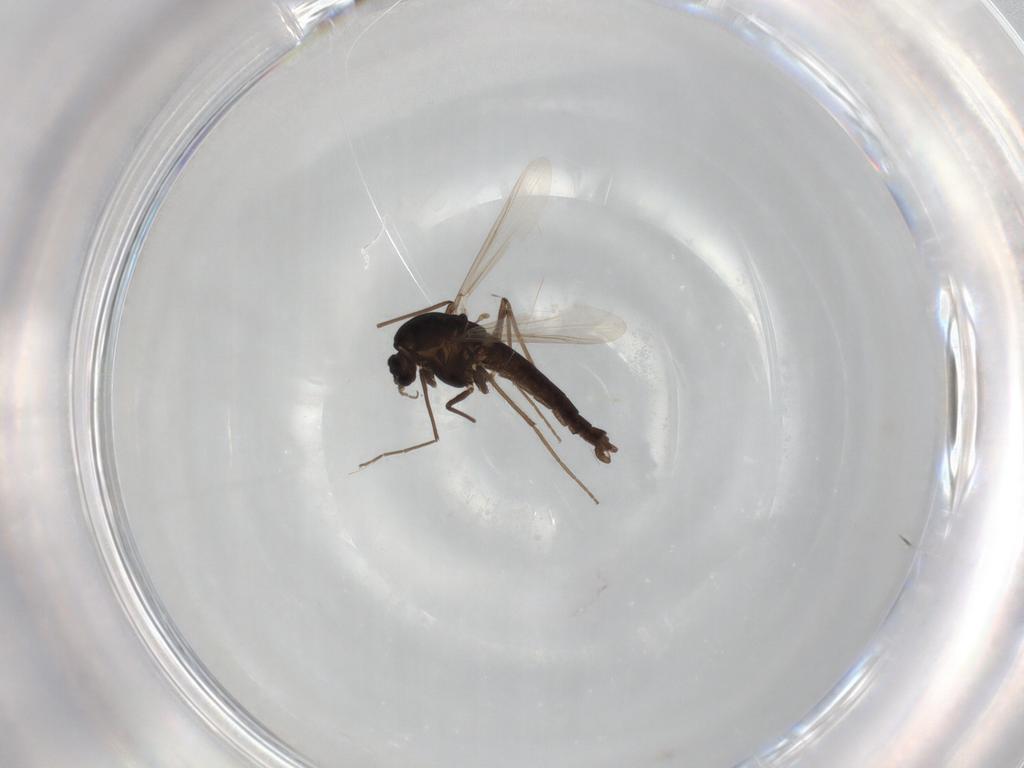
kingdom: Animalia
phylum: Arthropoda
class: Insecta
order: Diptera
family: Chironomidae
